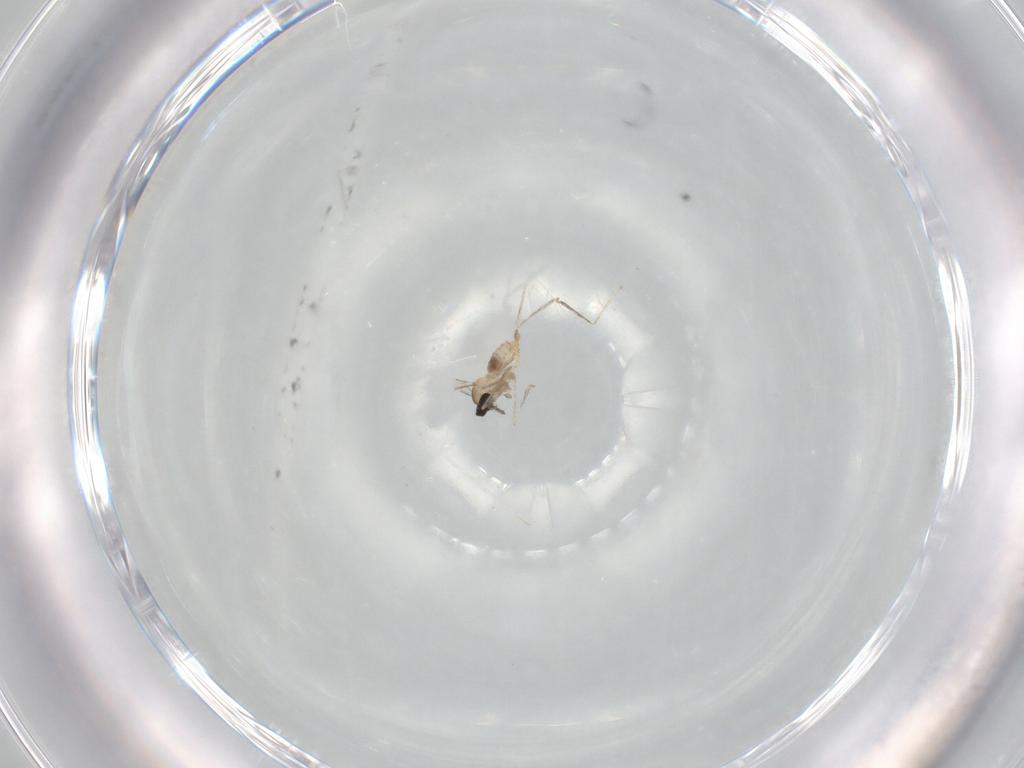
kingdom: Animalia
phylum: Arthropoda
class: Insecta
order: Diptera
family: Cecidomyiidae
